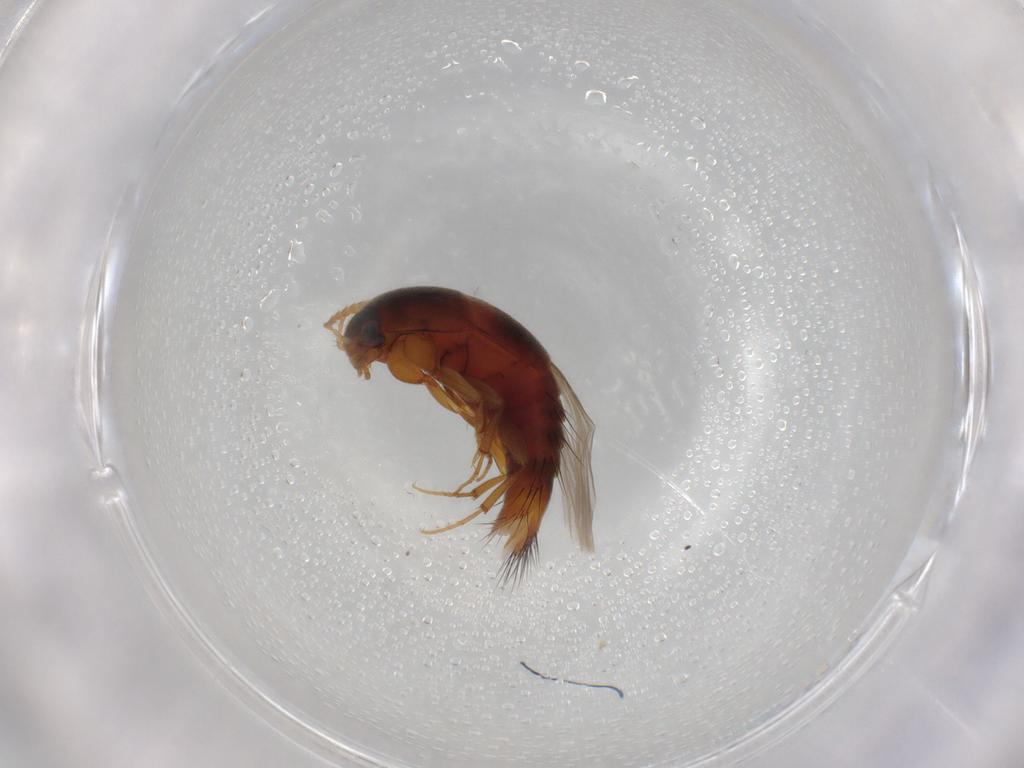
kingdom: Animalia
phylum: Arthropoda
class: Insecta
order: Coleoptera
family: Staphylinidae
